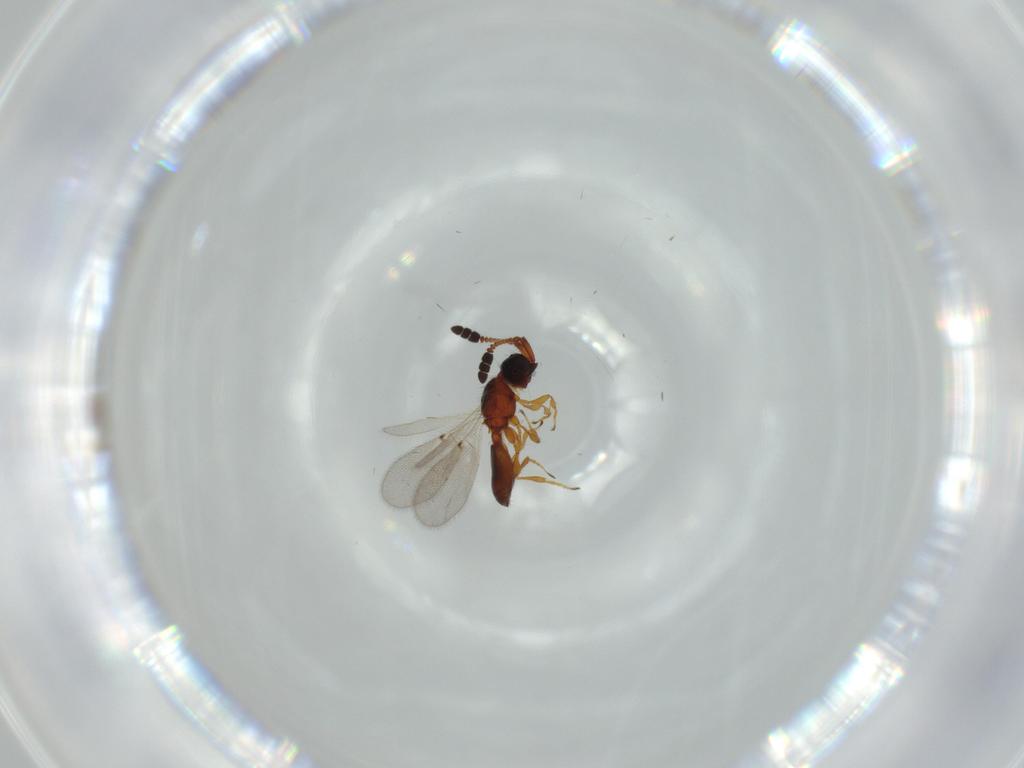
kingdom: Animalia
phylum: Arthropoda
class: Insecta
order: Hymenoptera
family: Diapriidae
